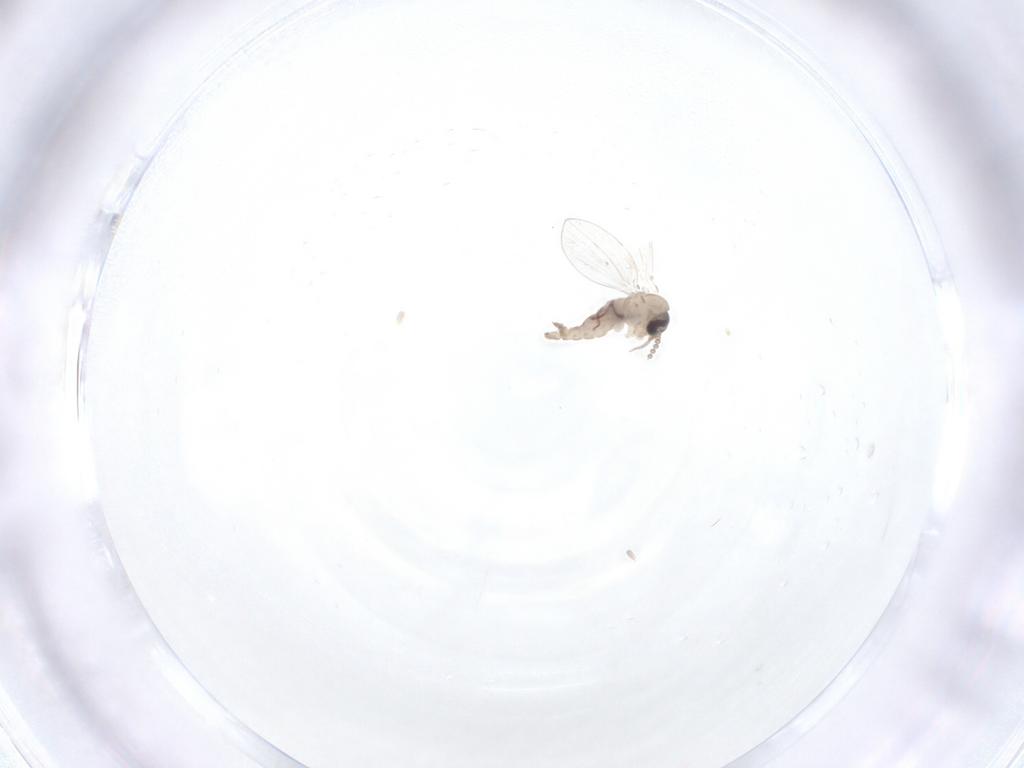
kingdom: Animalia
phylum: Arthropoda
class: Insecta
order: Diptera
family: Psychodidae
